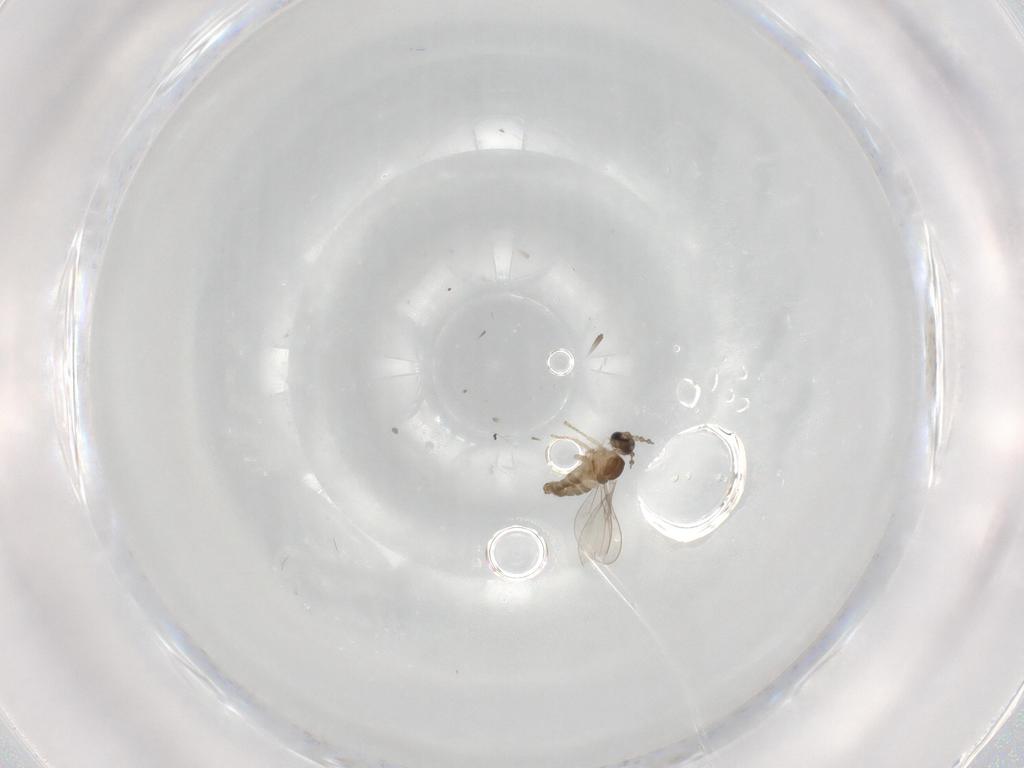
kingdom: Animalia
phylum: Arthropoda
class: Insecta
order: Diptera
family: Cecidomyiidae
